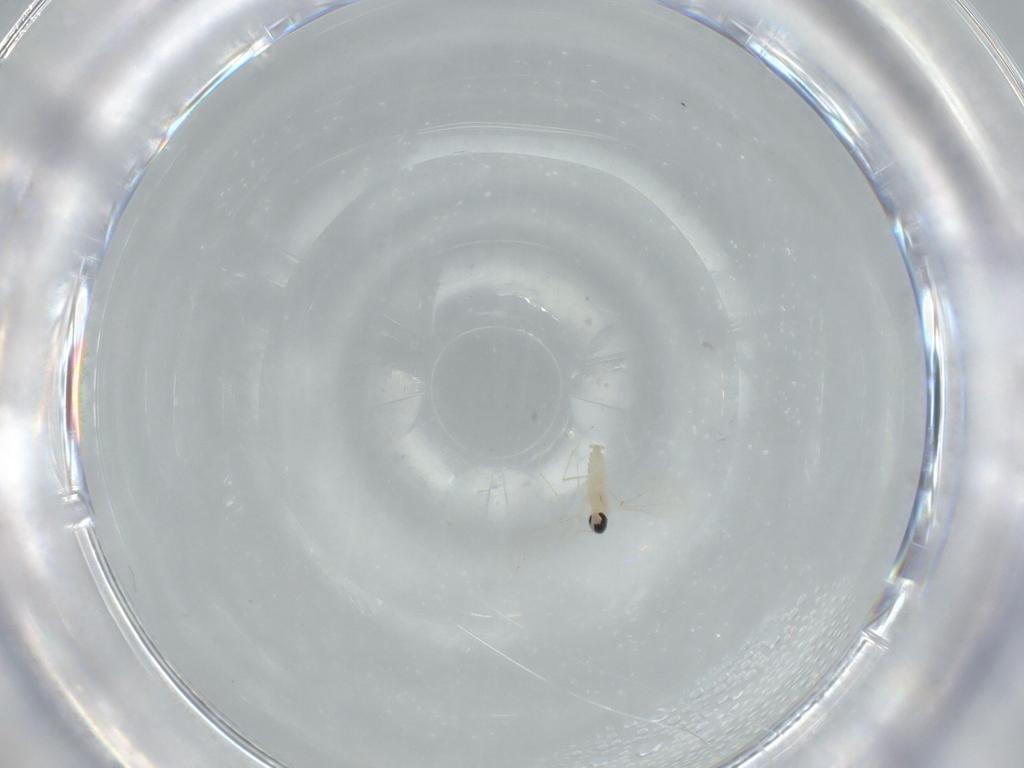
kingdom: Animalia
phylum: Arthropoda
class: Insecta
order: Diptera
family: Cecidomyiidae
